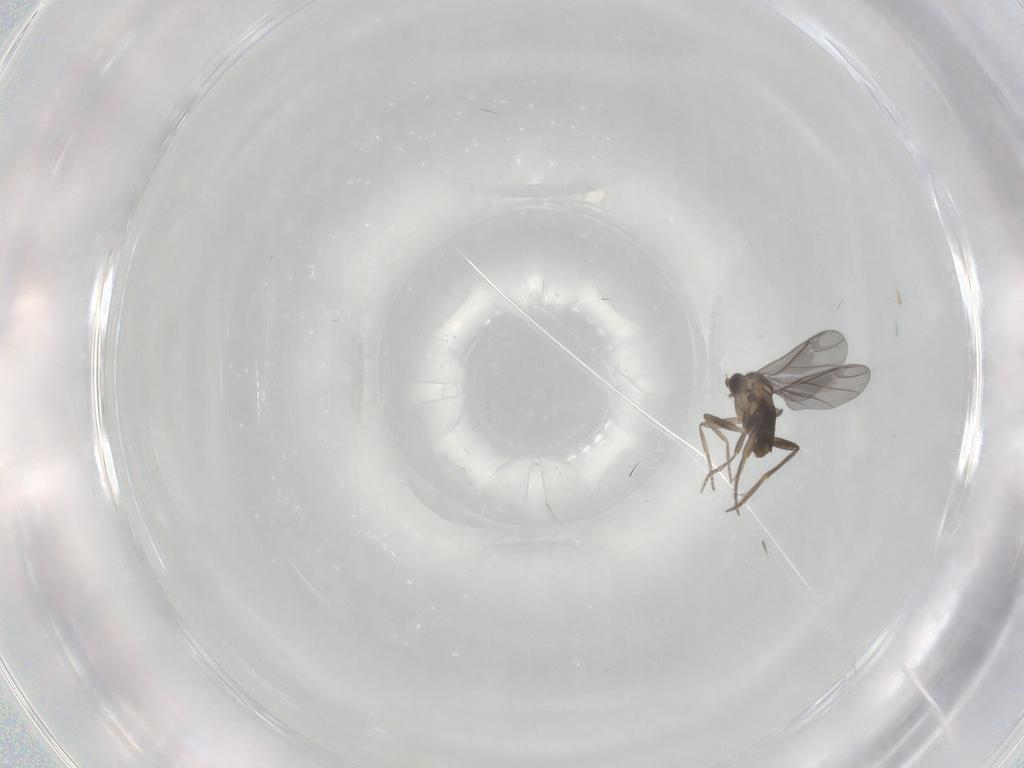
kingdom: Animalia
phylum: Arthropoda
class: Insecta
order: Diptera
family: Phoridae
